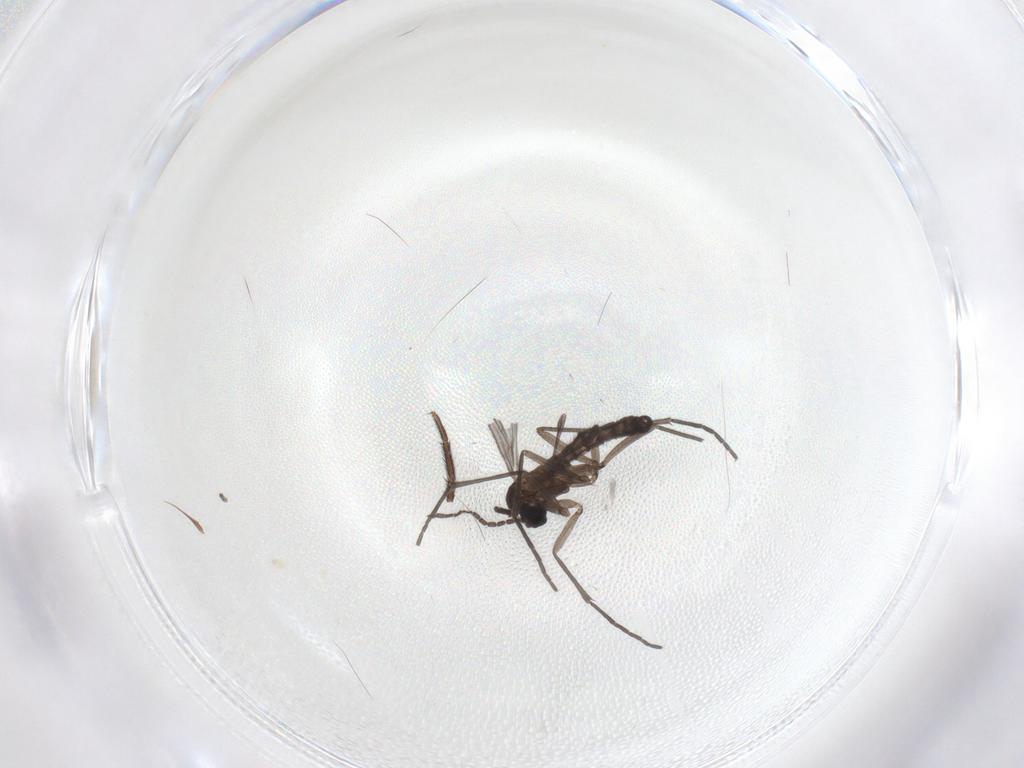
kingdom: Animalia
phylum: Arthropoda
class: Insecta
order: Diptera
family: Sciaridae
